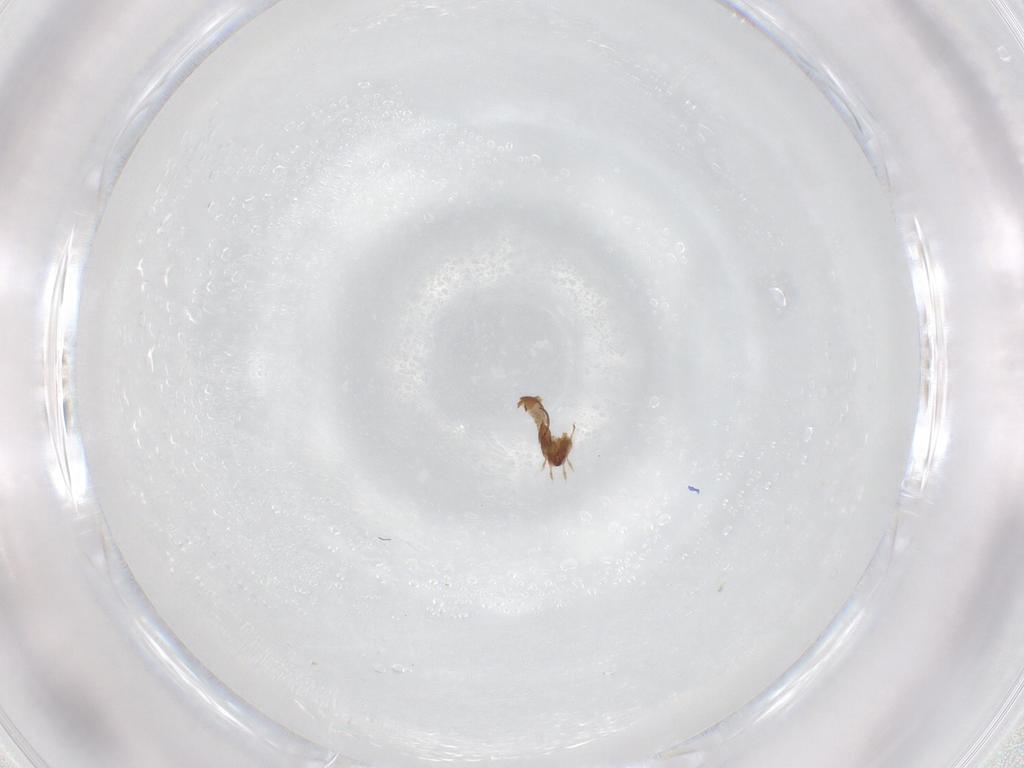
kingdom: Animalia
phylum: Arthropoda
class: Arachnida
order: Sarcoptiformes
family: Tegoribatidae
